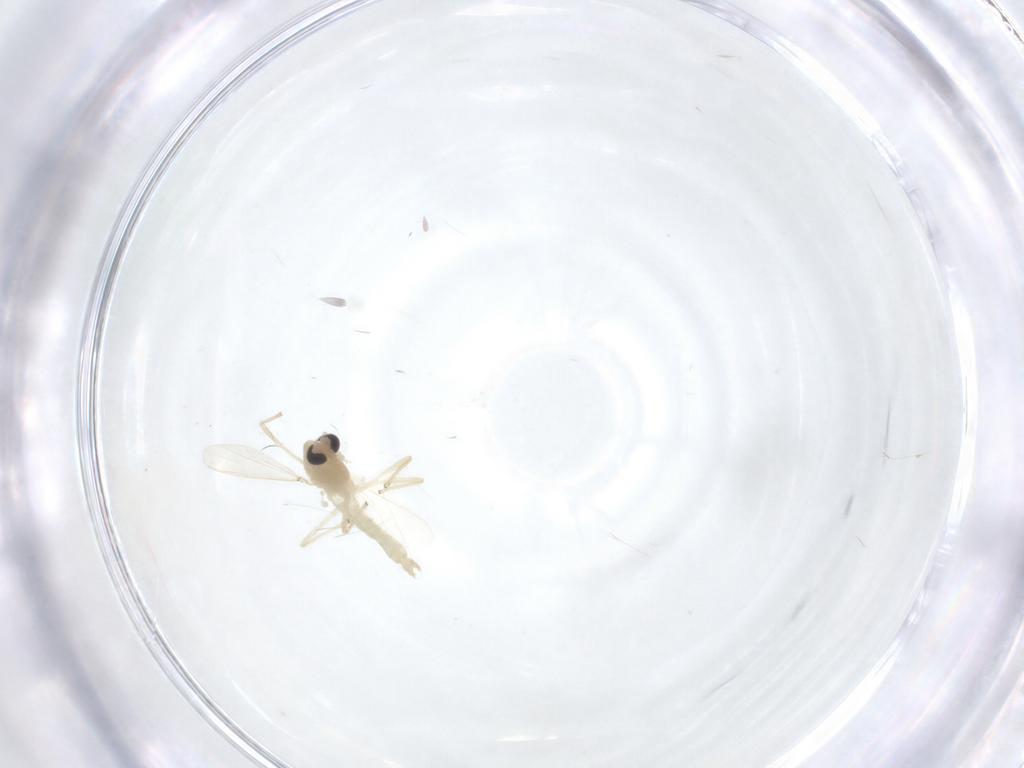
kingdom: Animalia
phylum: Arthropoda
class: Insecta
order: Diptera
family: Chironomidae
